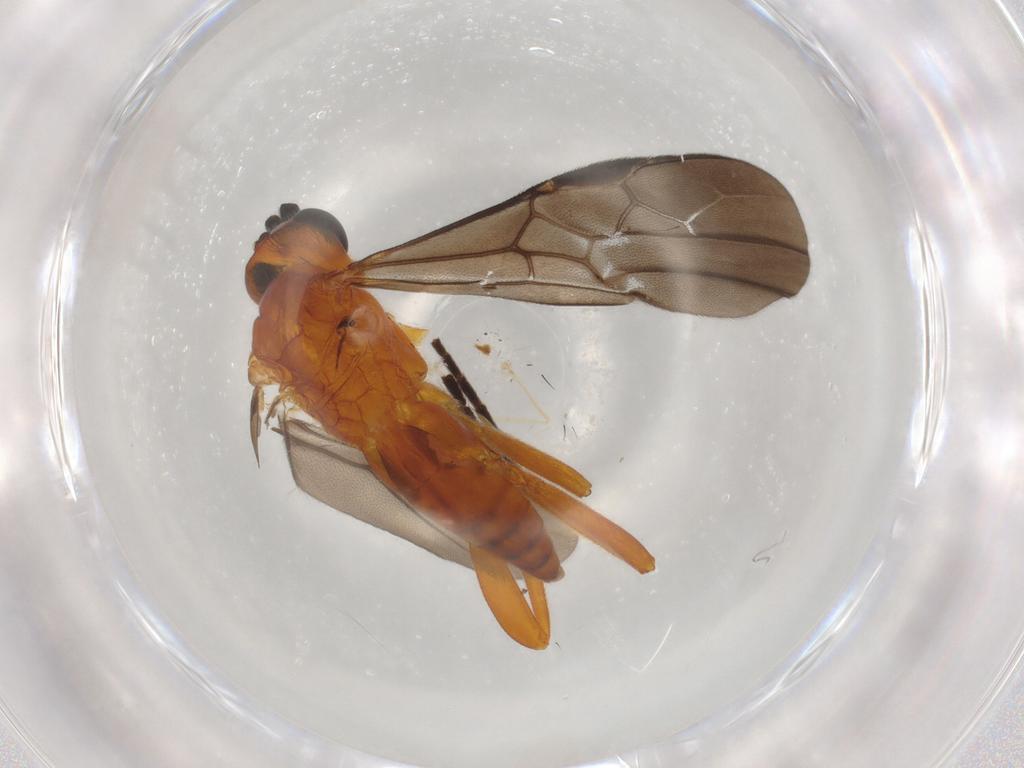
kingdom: Animalia
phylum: Arthropoda
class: Insecta
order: Hymenoptera
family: Braconidae
